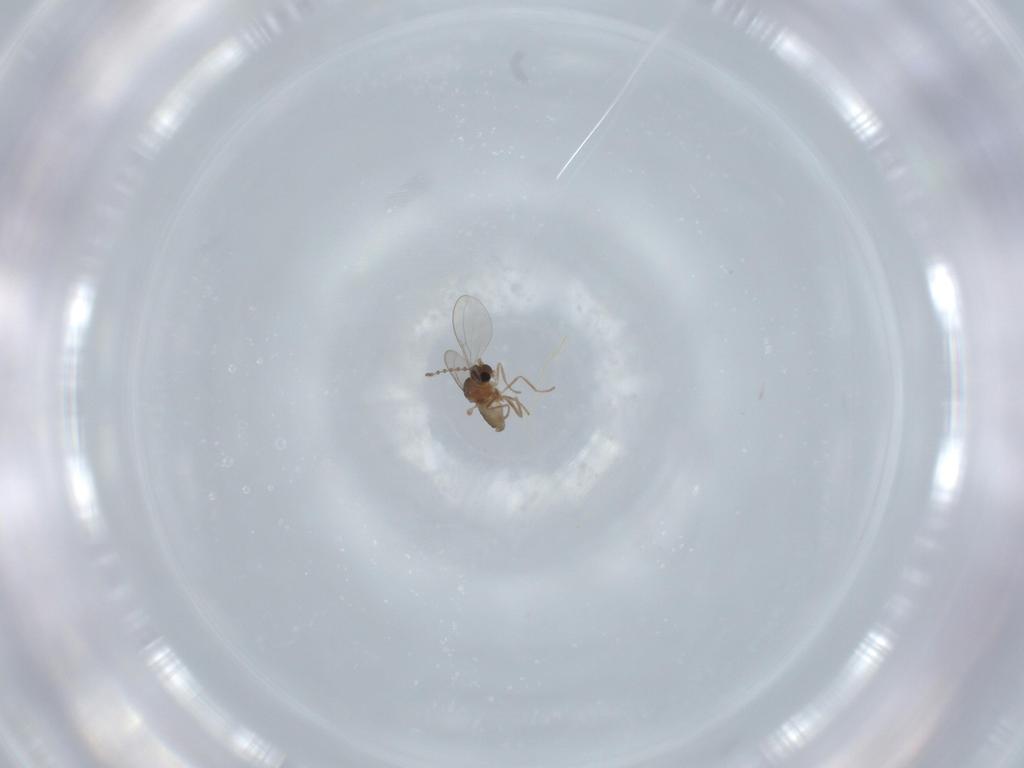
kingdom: Animalia
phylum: Arthropoda
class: Insecta
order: Diptera
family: Cecidomyiidae
